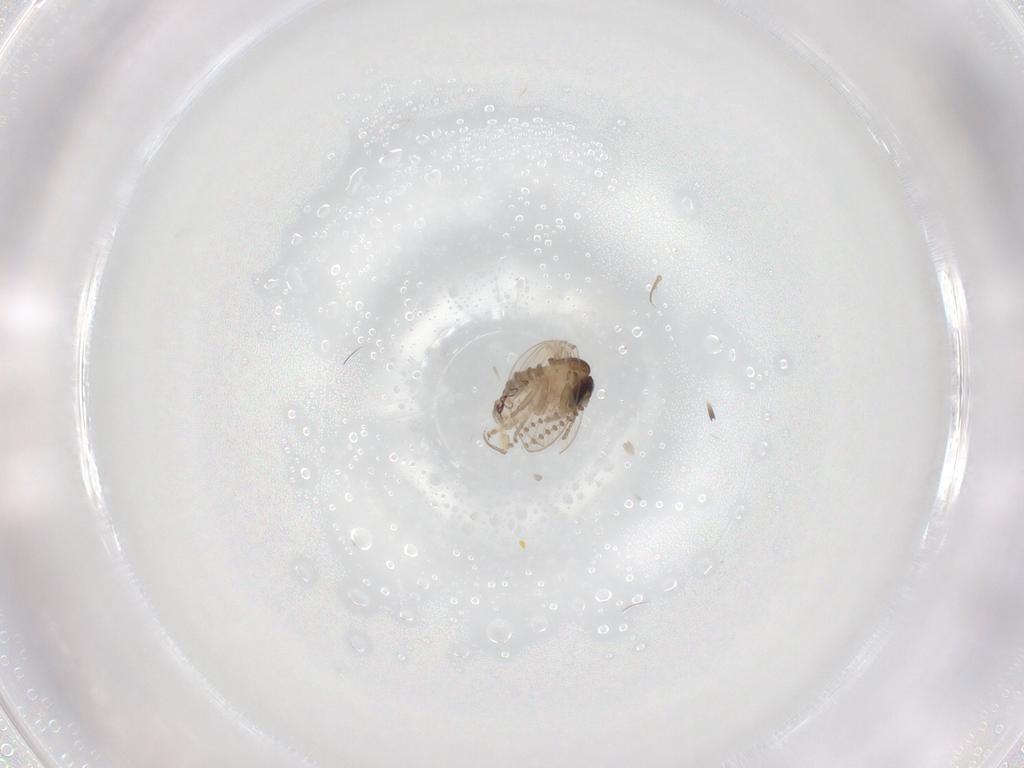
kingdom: Animalia
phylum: Arthropoda
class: Insecta
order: Diptera
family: Psychodidae
